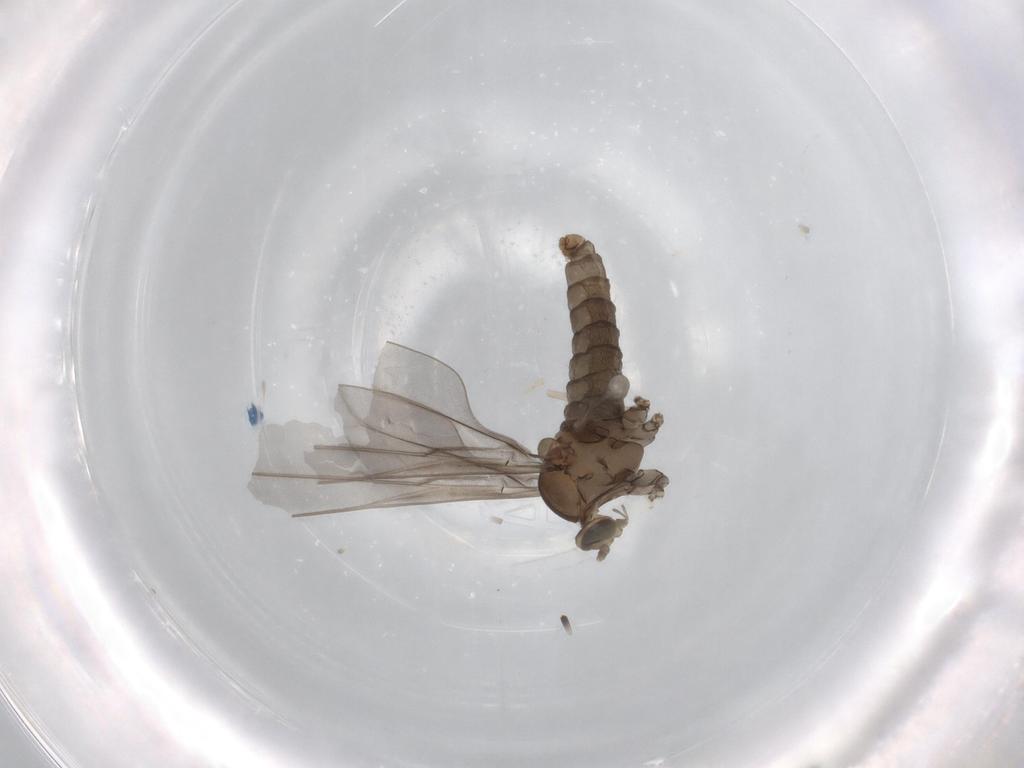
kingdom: Animalia
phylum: Arthropoda
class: Insecta
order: Diptera
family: Cecidomyiidae
